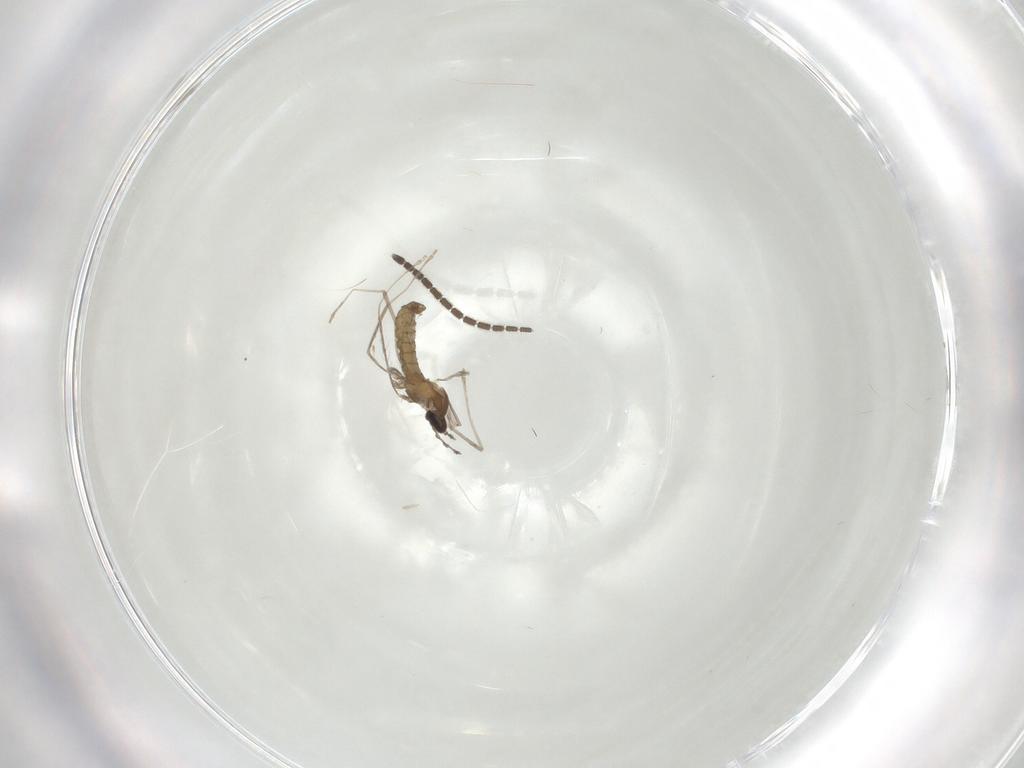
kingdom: Animalia
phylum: Arthropoda
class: Insecta
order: Diptera
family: Cecidomyiidae
